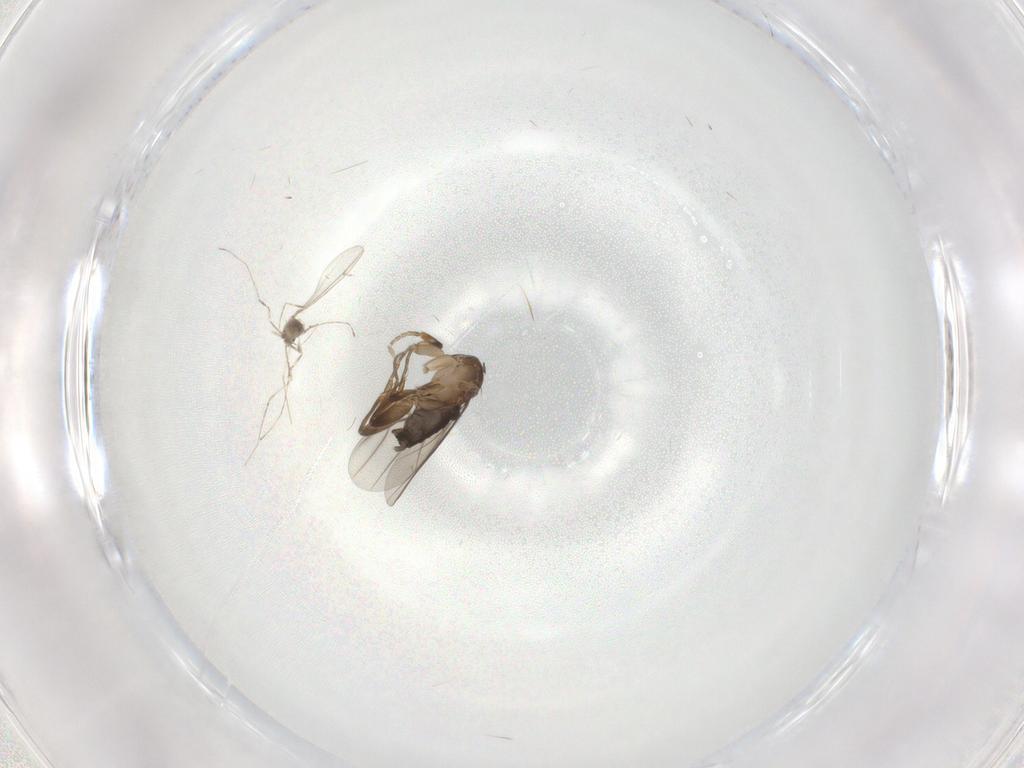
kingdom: Animalia
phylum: Arthropoda
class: Insecta
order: Diptera
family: Cecidomyiidae
